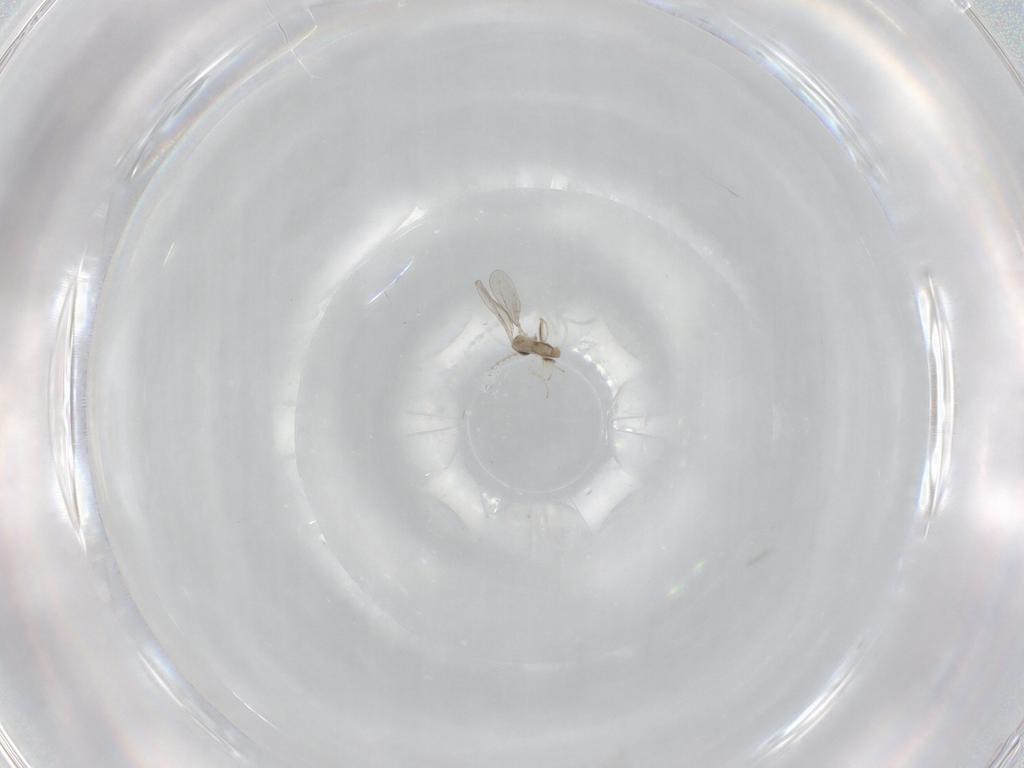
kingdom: Animalia
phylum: Arthropoda
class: Insecta
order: Diptera
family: Cecidomyiidae
